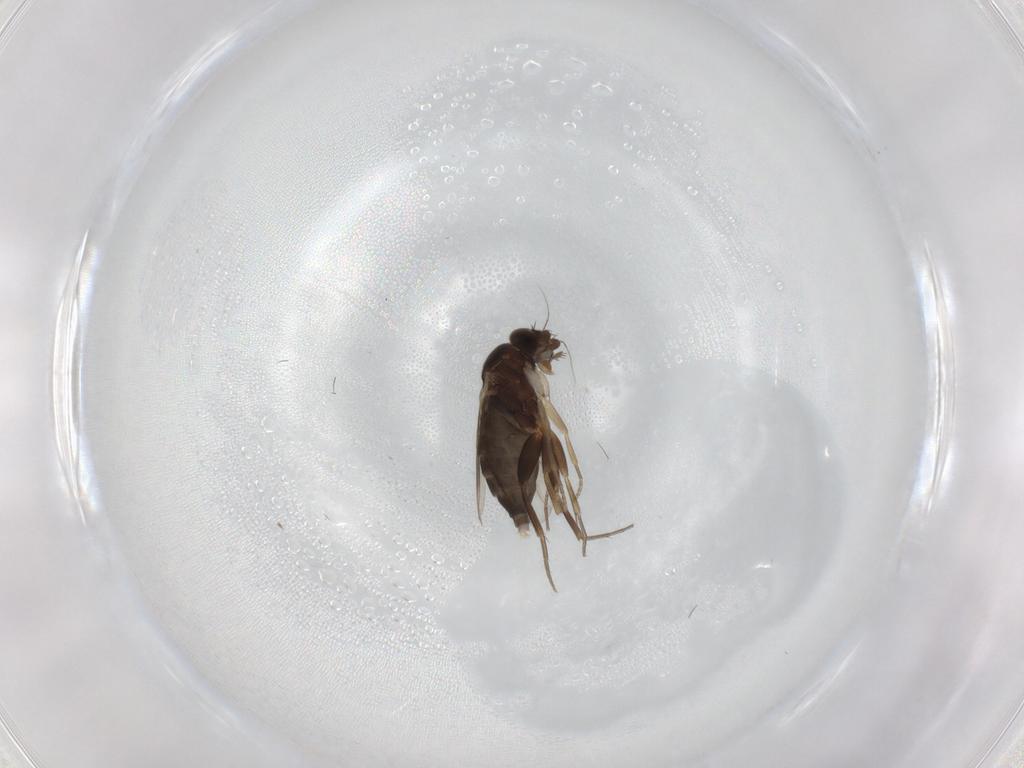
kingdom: Animalia
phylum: Arthropoda
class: Insecta
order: Diptera
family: Phoridae
